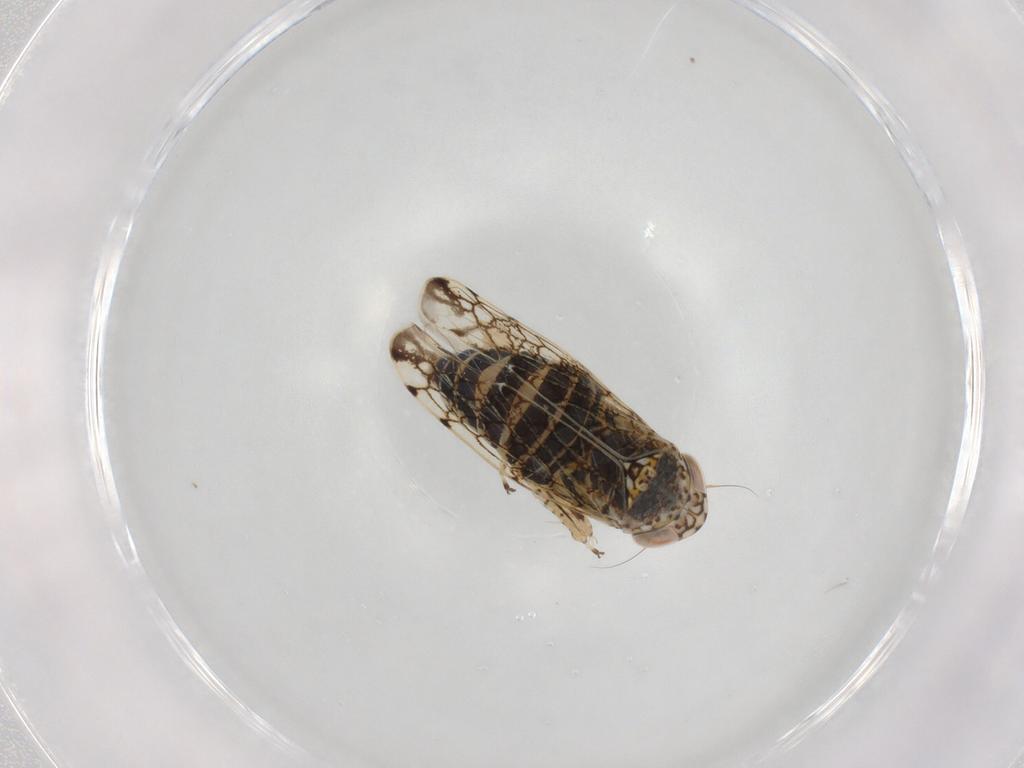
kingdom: Animalia
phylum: Arthropoda
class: Insecta
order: Hemiptera
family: Cicadellidae
